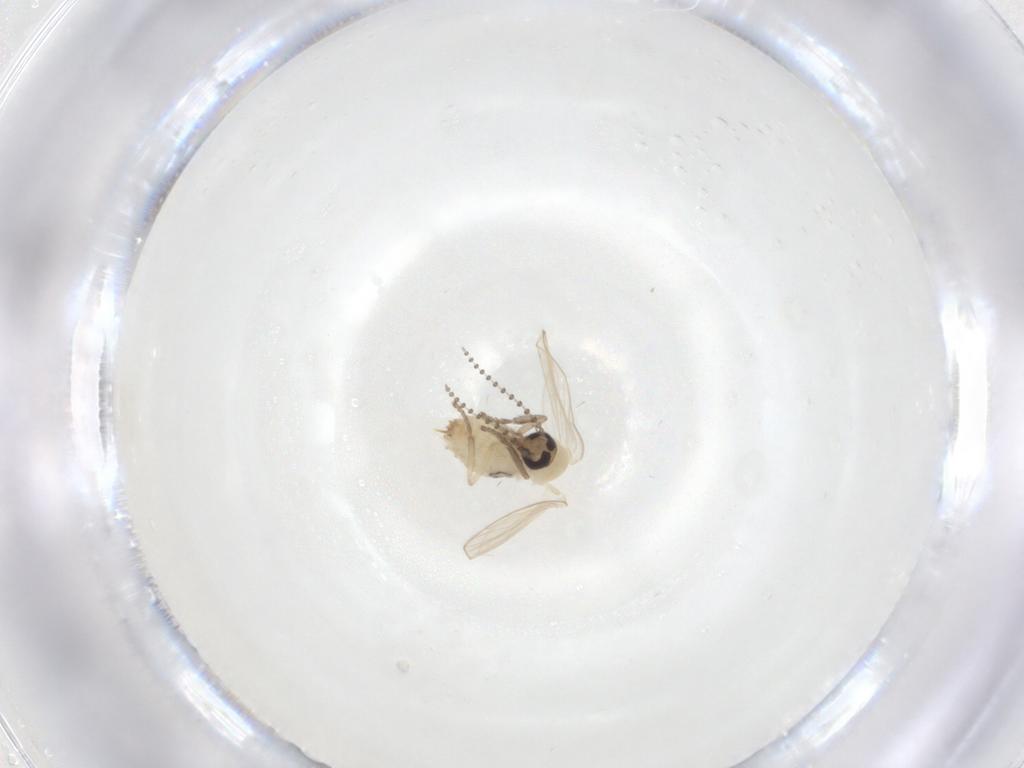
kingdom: Animalia
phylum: Arthropoda
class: Insecta
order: Diptera
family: Psychodidae
